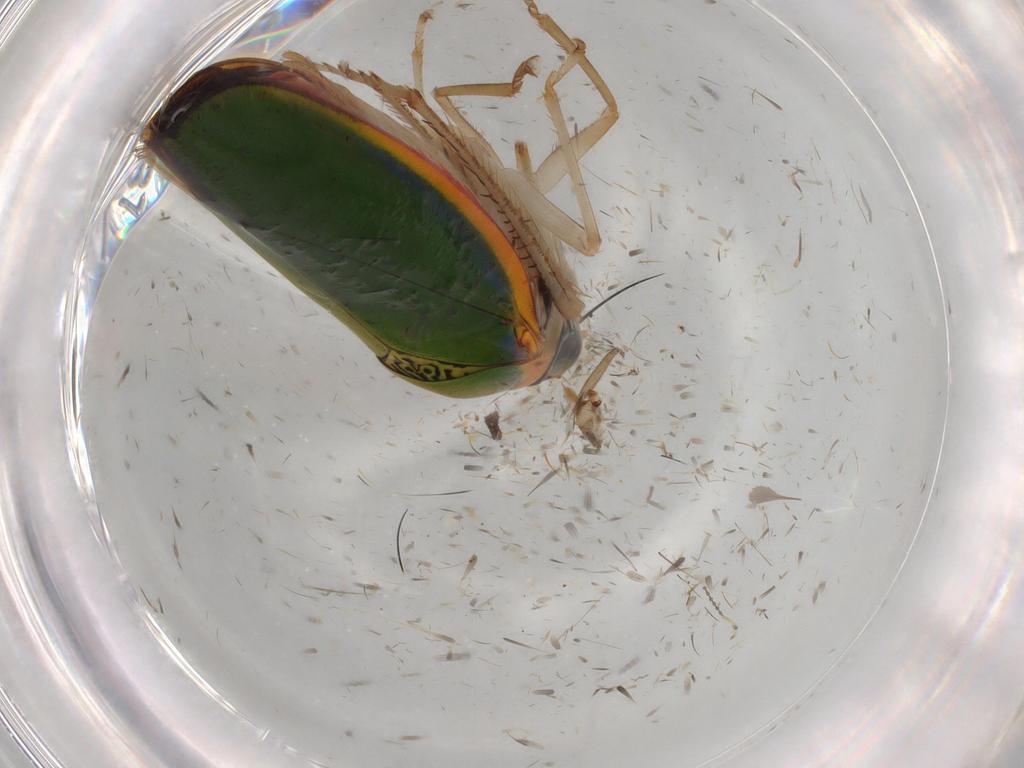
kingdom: Animalia
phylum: Arthropoda
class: Insecta
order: Hemiptera
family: Cicadellidae
